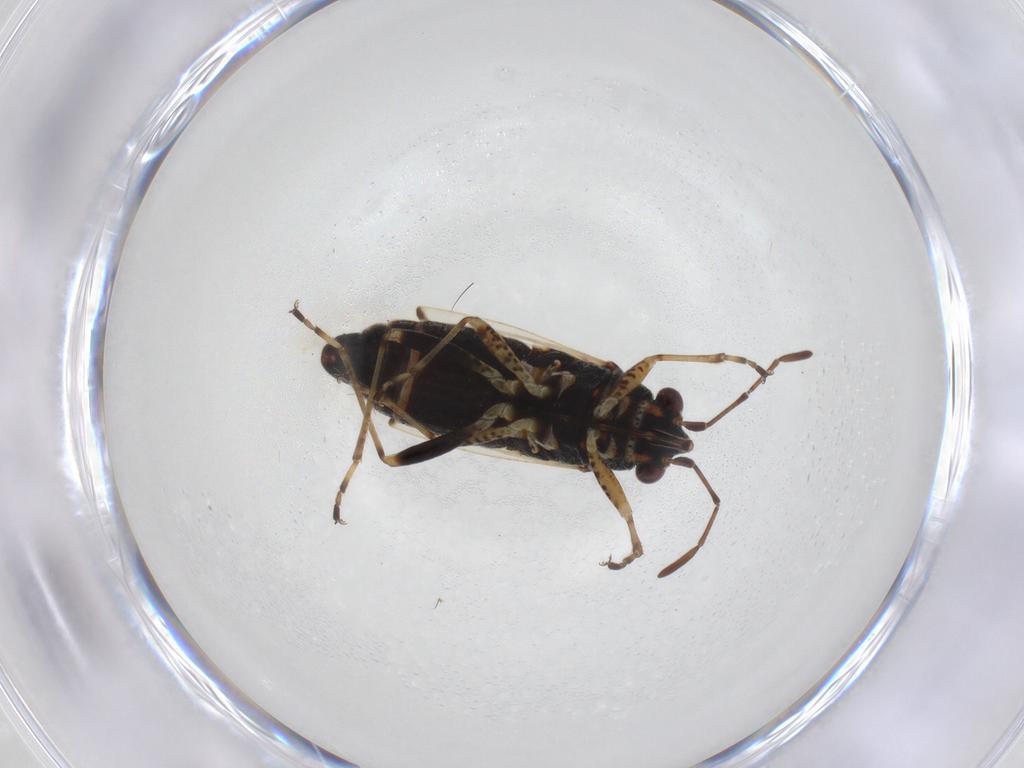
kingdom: Animalia
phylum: Arthropoda
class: Insecta
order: Hemiptera
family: Lygaeidae
